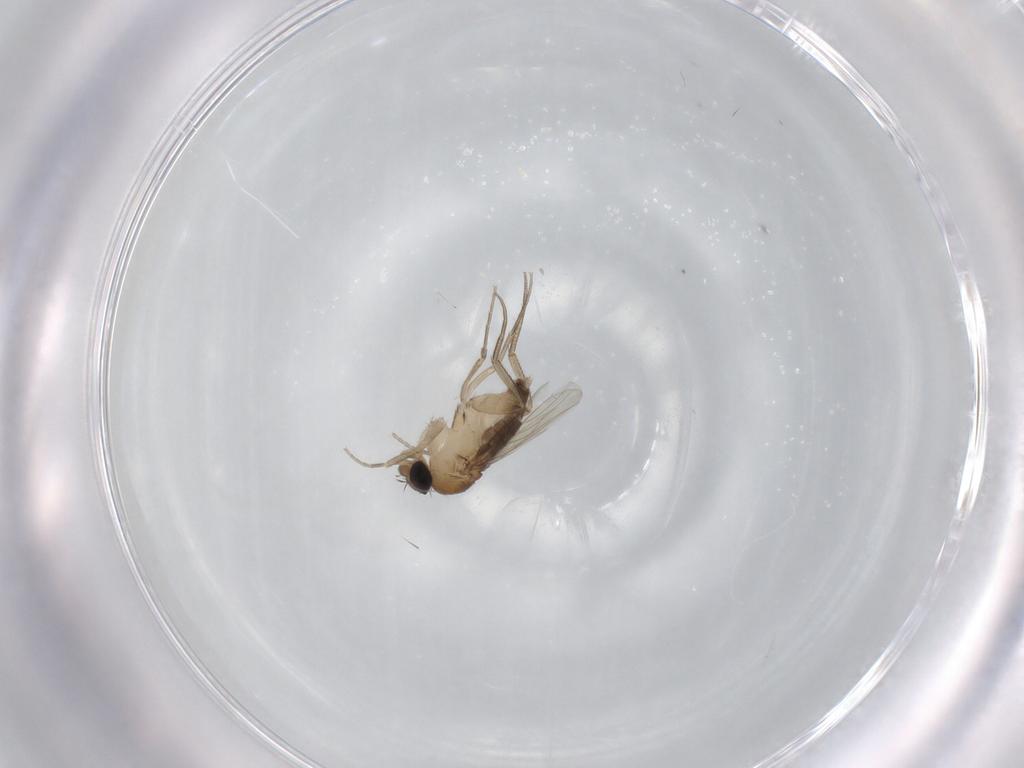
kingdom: Animalia
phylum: Arthropoda
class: Insecta
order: Diptera
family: Phoridae
